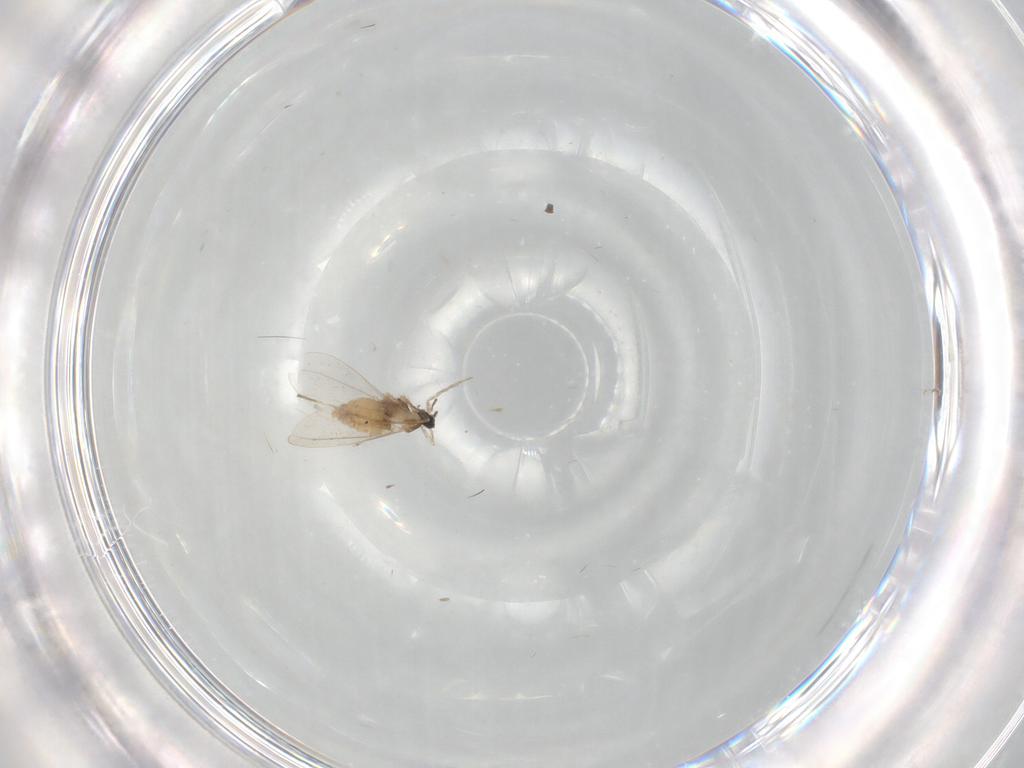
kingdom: Animalia
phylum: Arthropoda
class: Insecta
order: Diptera
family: Cecidomyiidae
